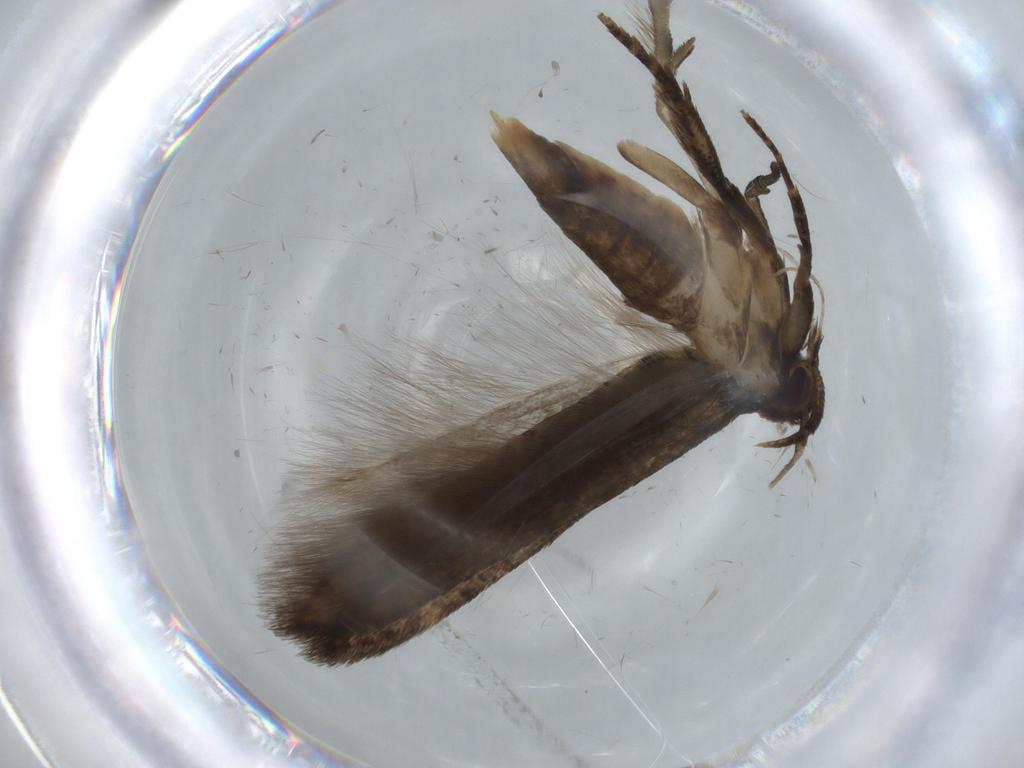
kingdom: Animalia
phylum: Arthropoda
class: Insecta
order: Lepidoptera
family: Autostichidae
